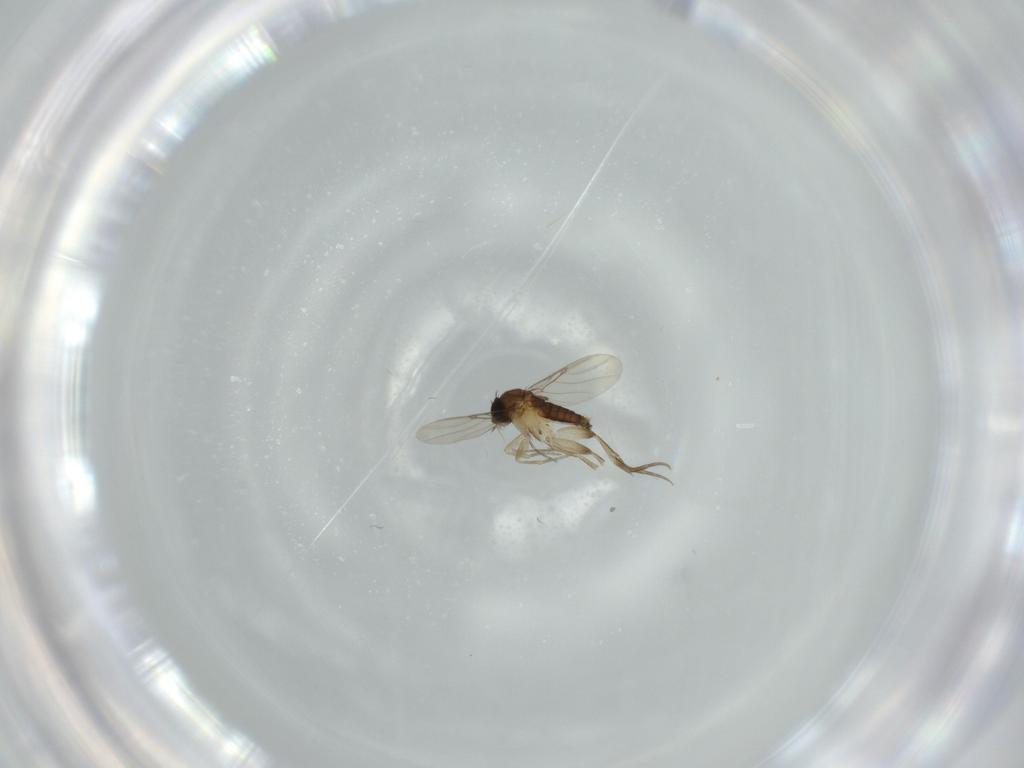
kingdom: Animalia
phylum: Arthropoda
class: Insecta
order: Diptera
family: Phoridae
